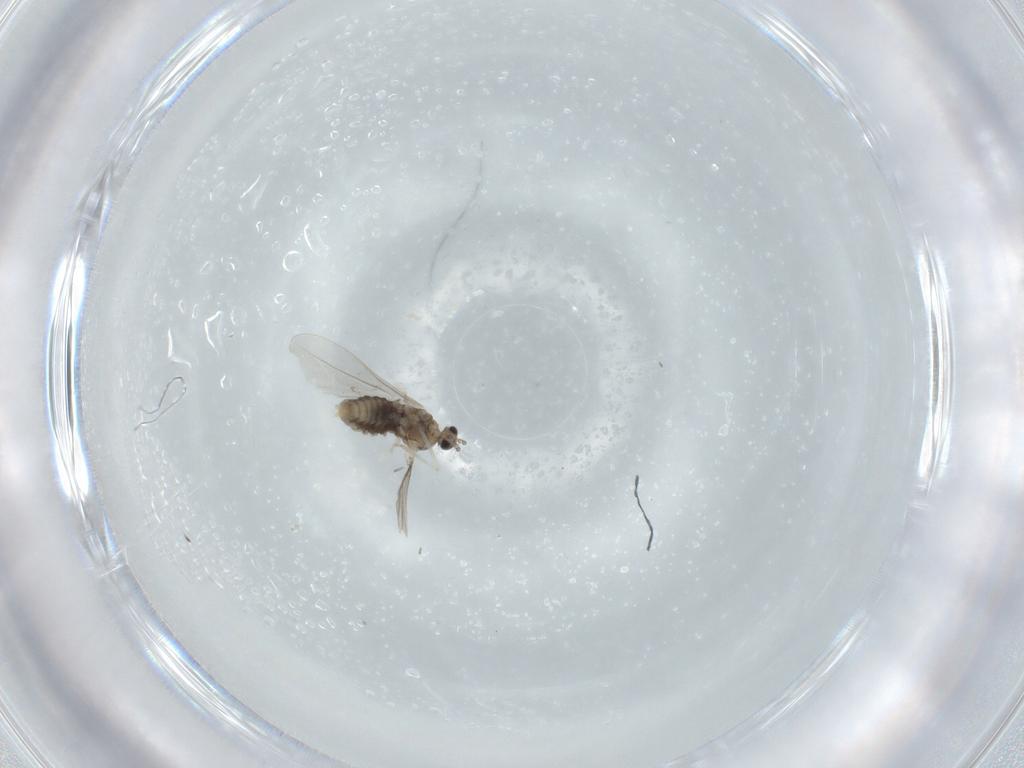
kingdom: Animalia
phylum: Arthropoda
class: Insecta
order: Diptera
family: Cecidomyiidae
